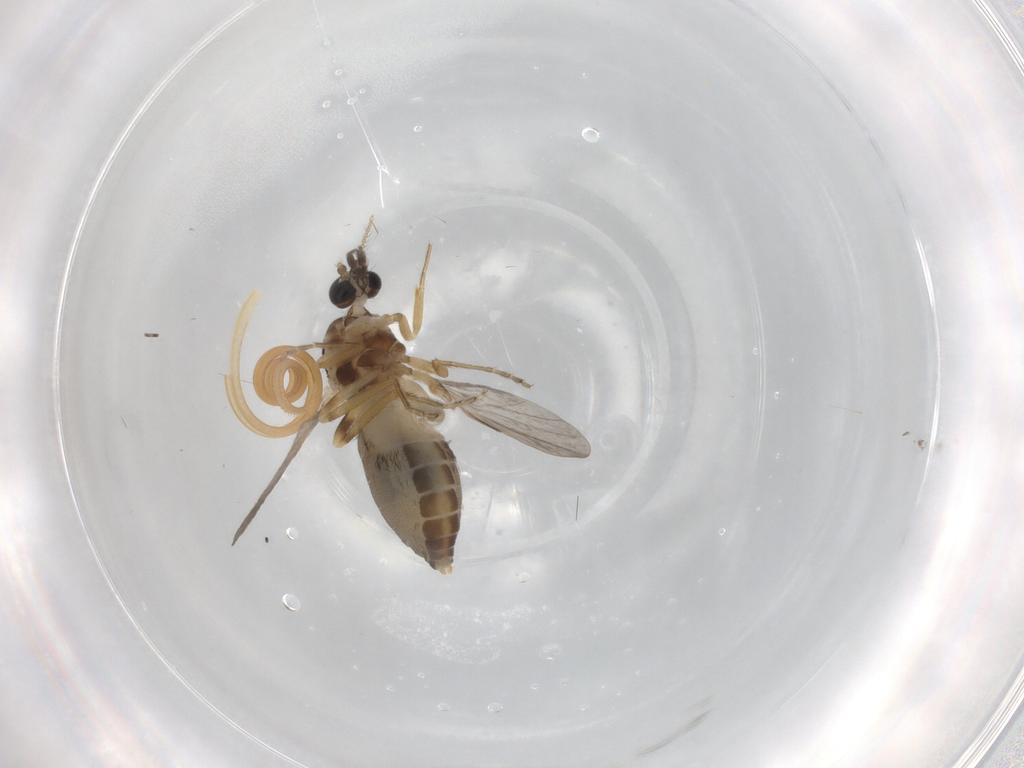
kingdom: Animalia
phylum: Arthropoda
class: Insecta
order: Diptera
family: Ceratopogonidae
